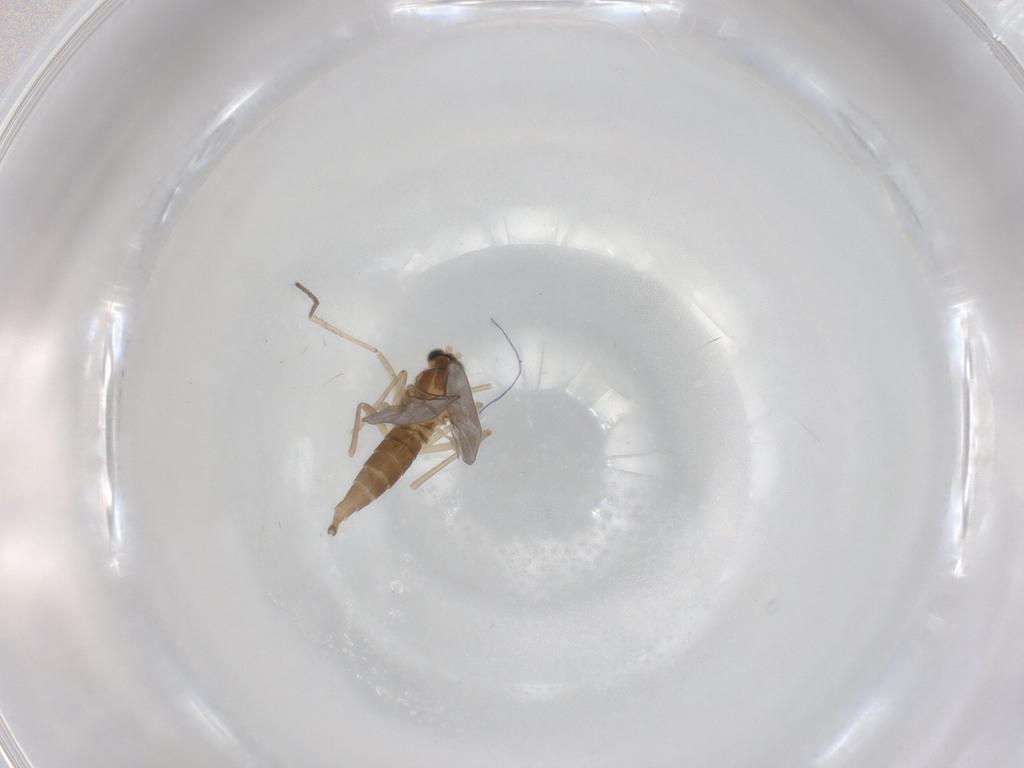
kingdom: Animalia
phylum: Arthropoda
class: Insecta
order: Diptera
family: Cecidomyiidae
